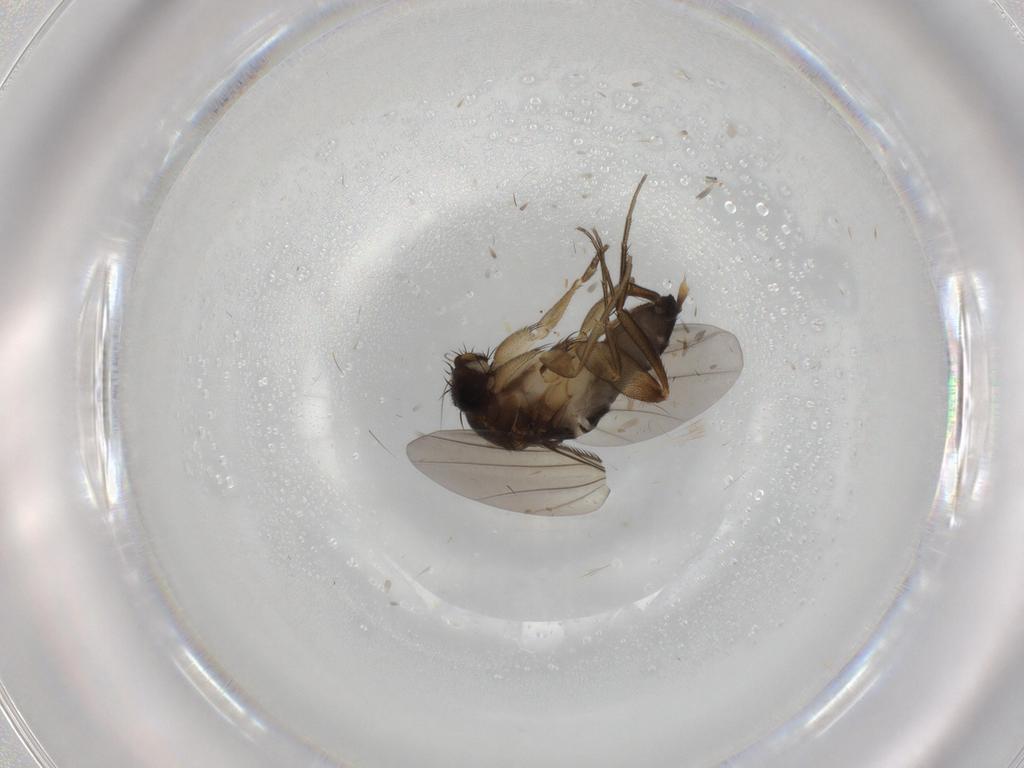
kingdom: Animalia
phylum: Arthropoda
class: Insecta
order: Diptera
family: Phoridae
